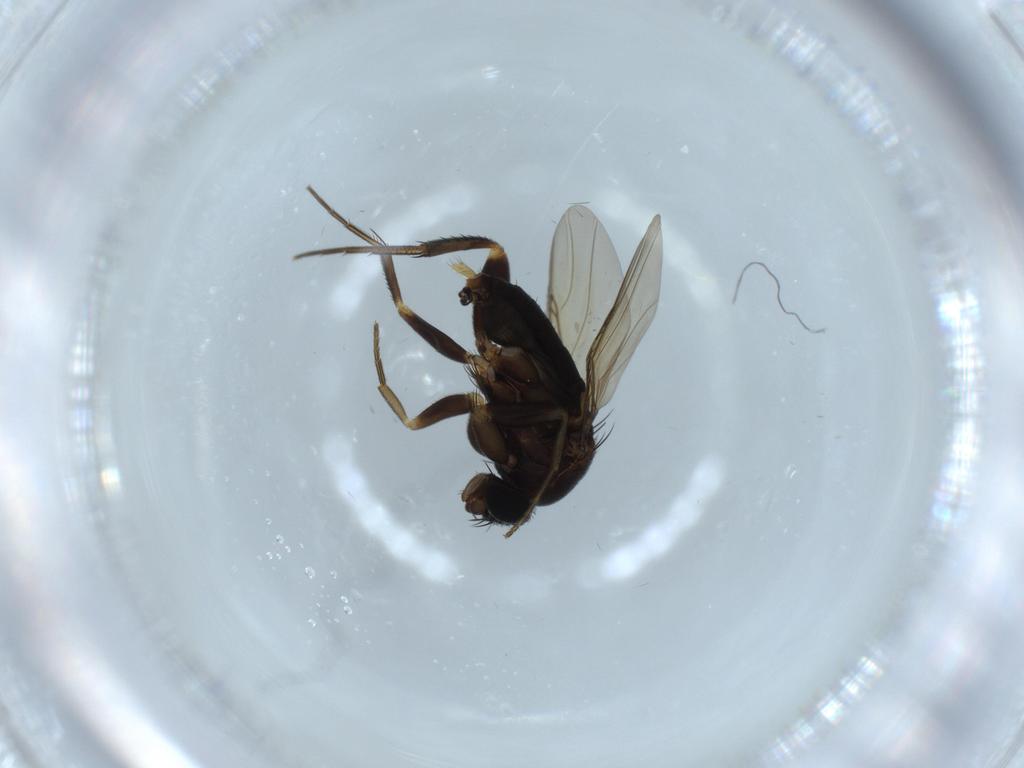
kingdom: Animalia
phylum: Arthropoda
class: Insecta
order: Diptera
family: Phoridae
